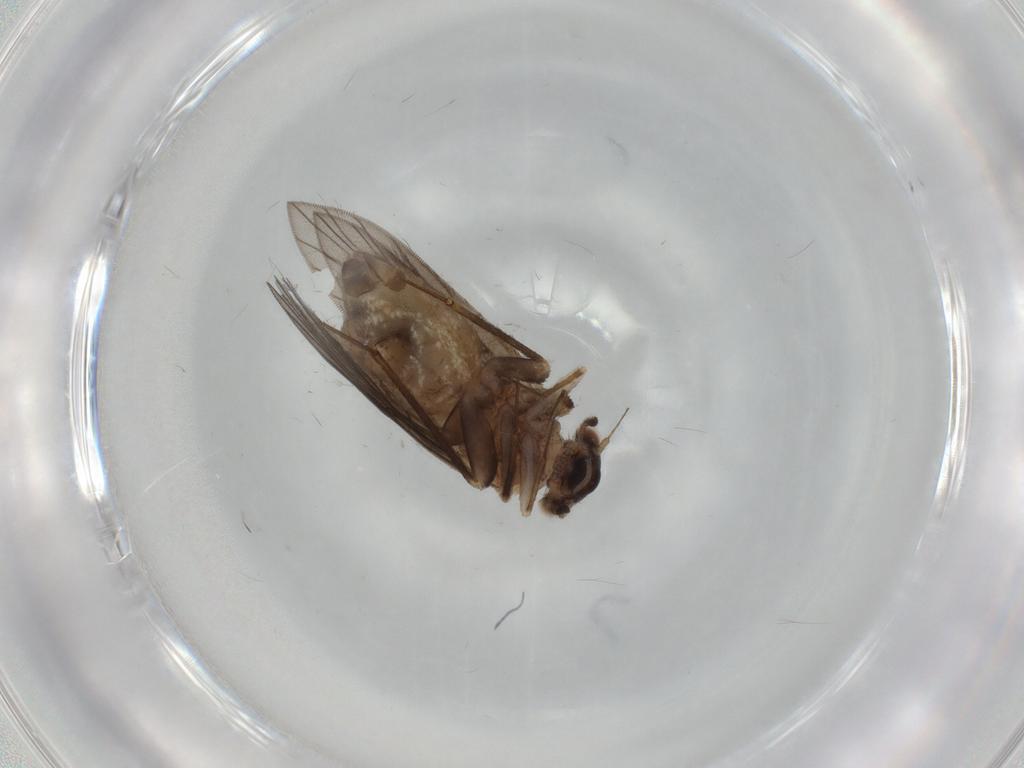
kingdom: Animalia
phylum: Arthropoda
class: Insecta
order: Psocodea
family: Lepidopsocidae
